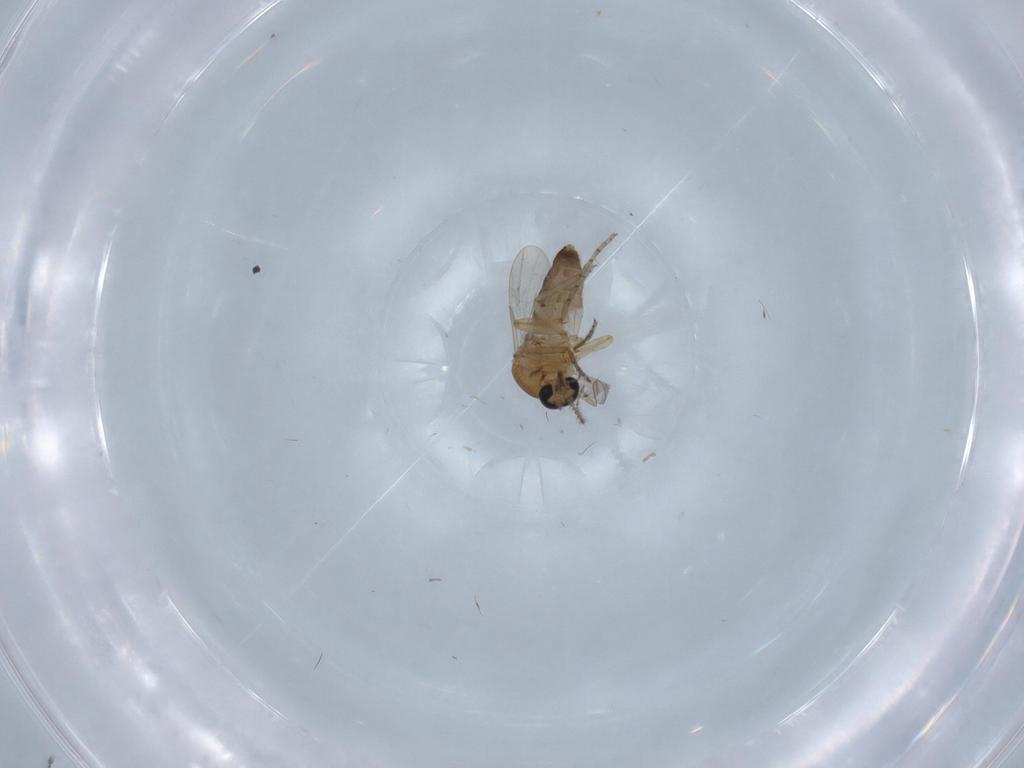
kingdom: Animalia
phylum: Arthropoda
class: Insecta
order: Diptera
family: Ceratopogonidae
